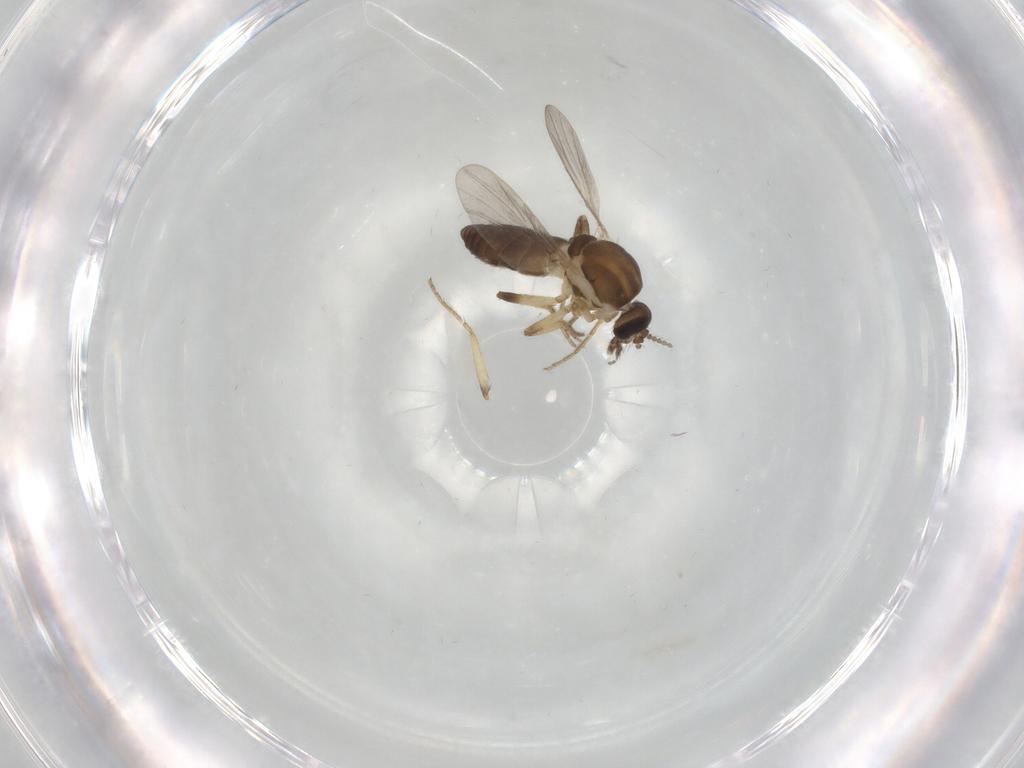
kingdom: Animalia
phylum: Arthropoda
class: Insecta
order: Diptera
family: Ceratopogonidae
